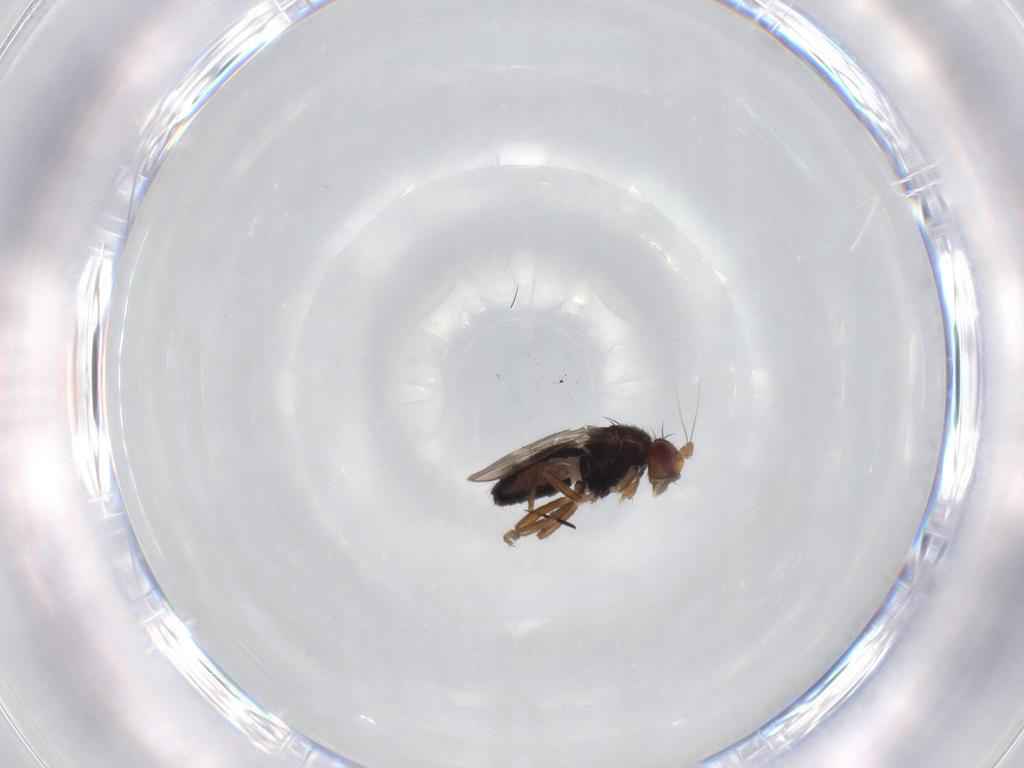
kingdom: Animalia
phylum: Arthropoda
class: Insecta
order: Diptera
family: Sphaeroceridae
